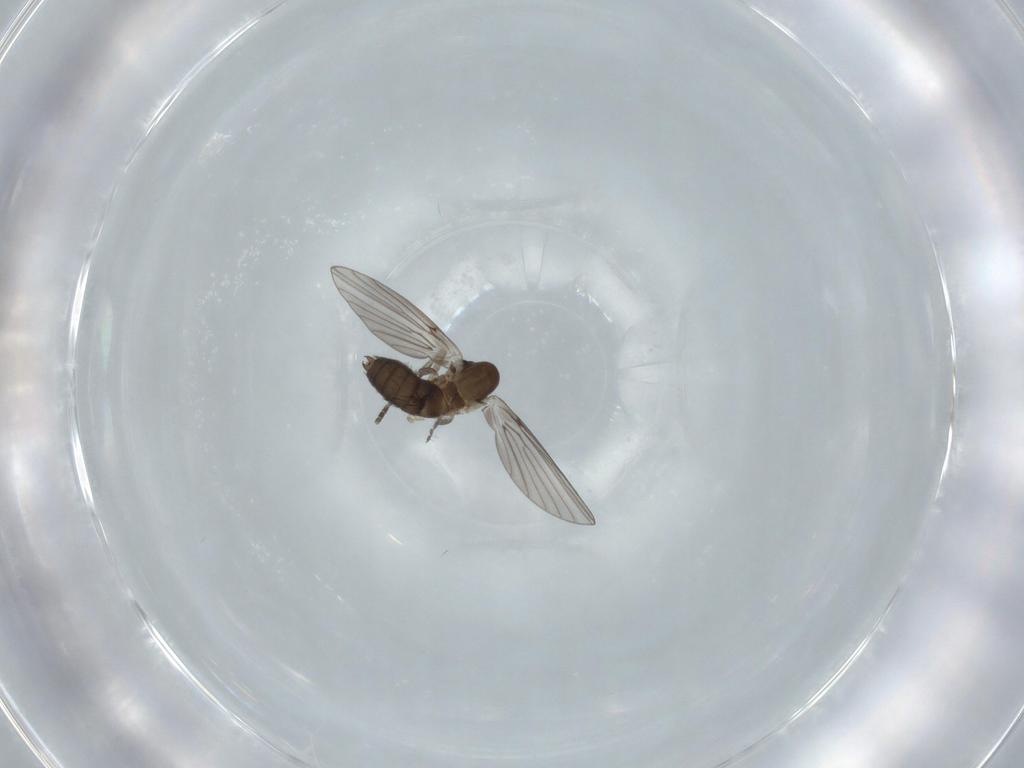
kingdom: Animalia
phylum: Arthropoda
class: Insecta
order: Diptera
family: Psychodidae
